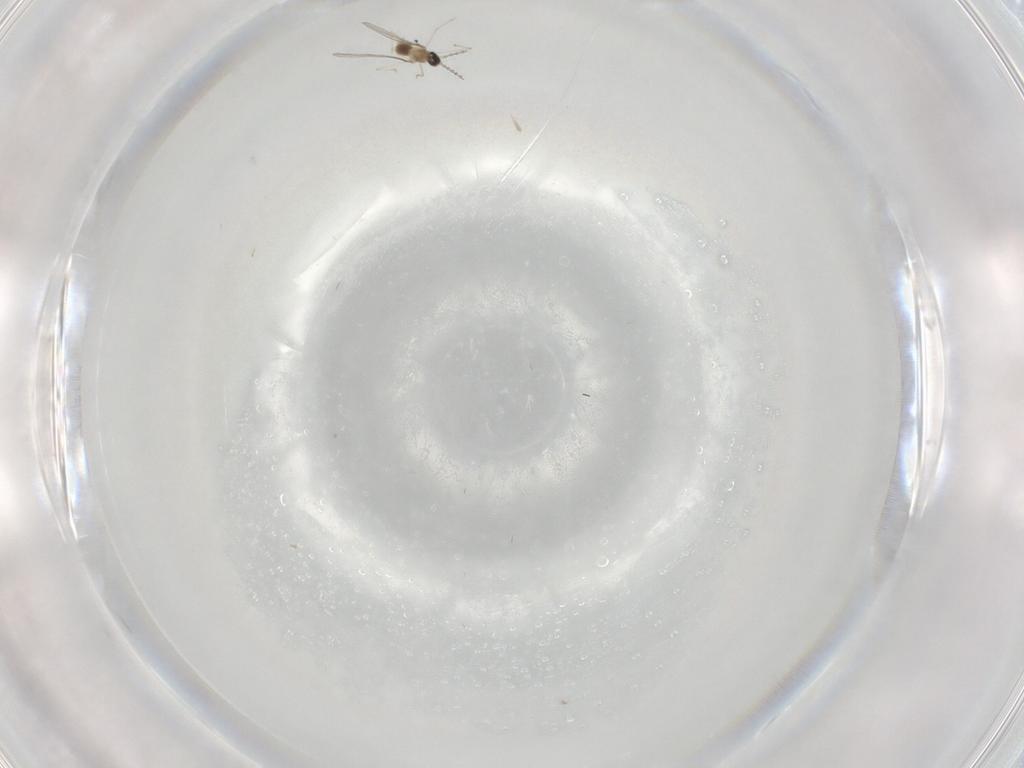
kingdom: Animalia
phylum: Arthropoda
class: Insecta
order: Diptera
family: Cecidomyiidae
